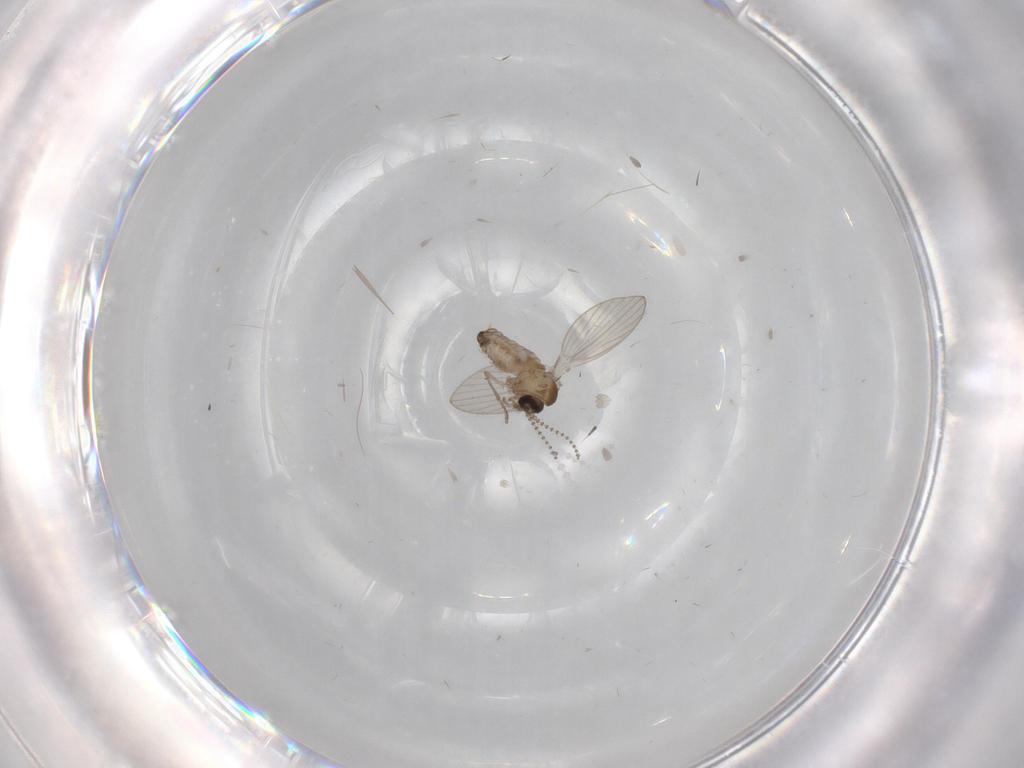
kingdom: Animalia
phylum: Arthropoda
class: Insecta
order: Diptera
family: Psychodidae
